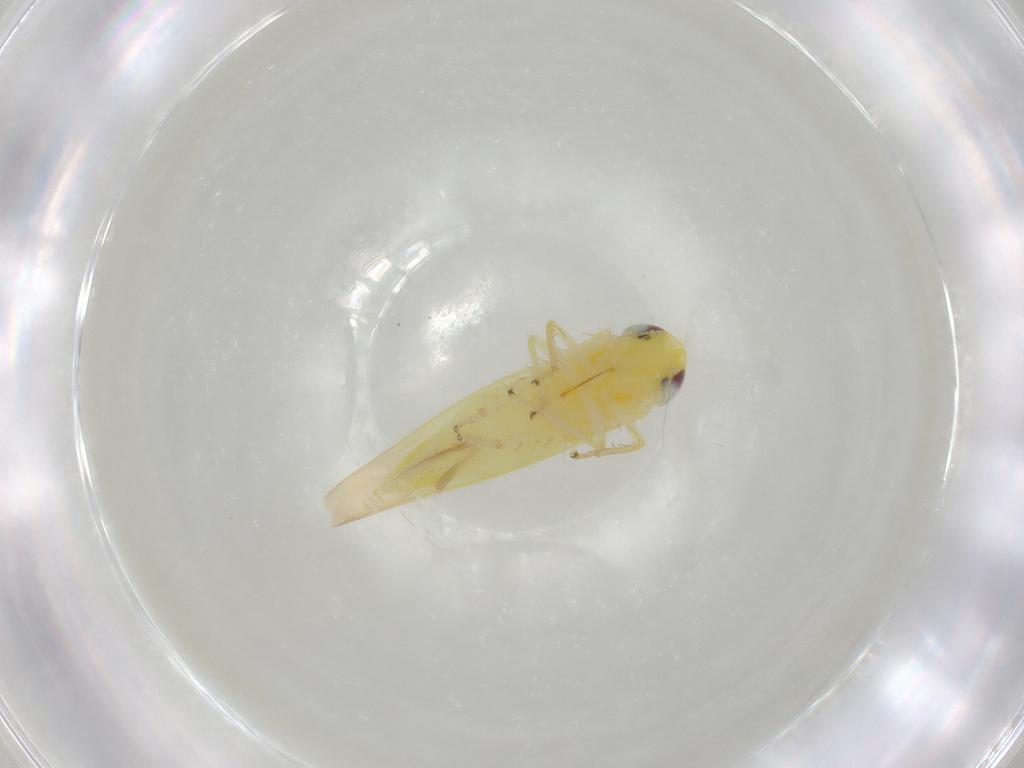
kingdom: Animalia
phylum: Arthropoda
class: Insecta
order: Hemiptera
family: Cicadellidae
